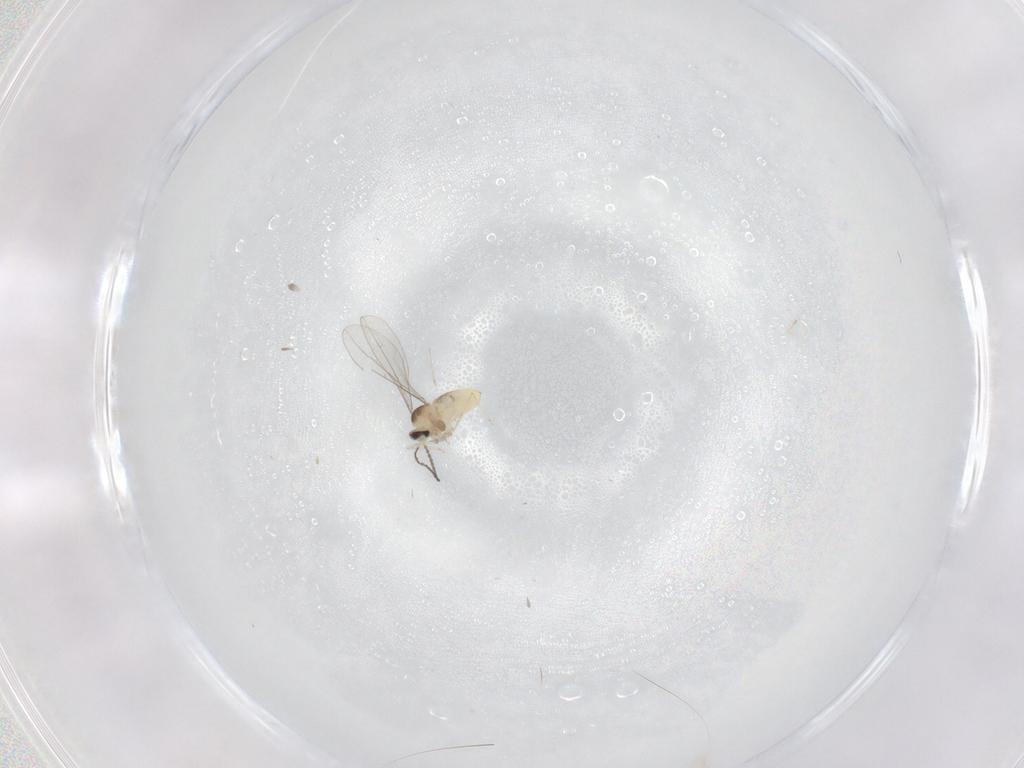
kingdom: Animalia
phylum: Arthropoda
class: Insecta
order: Diptera
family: Cecidomyiidae
